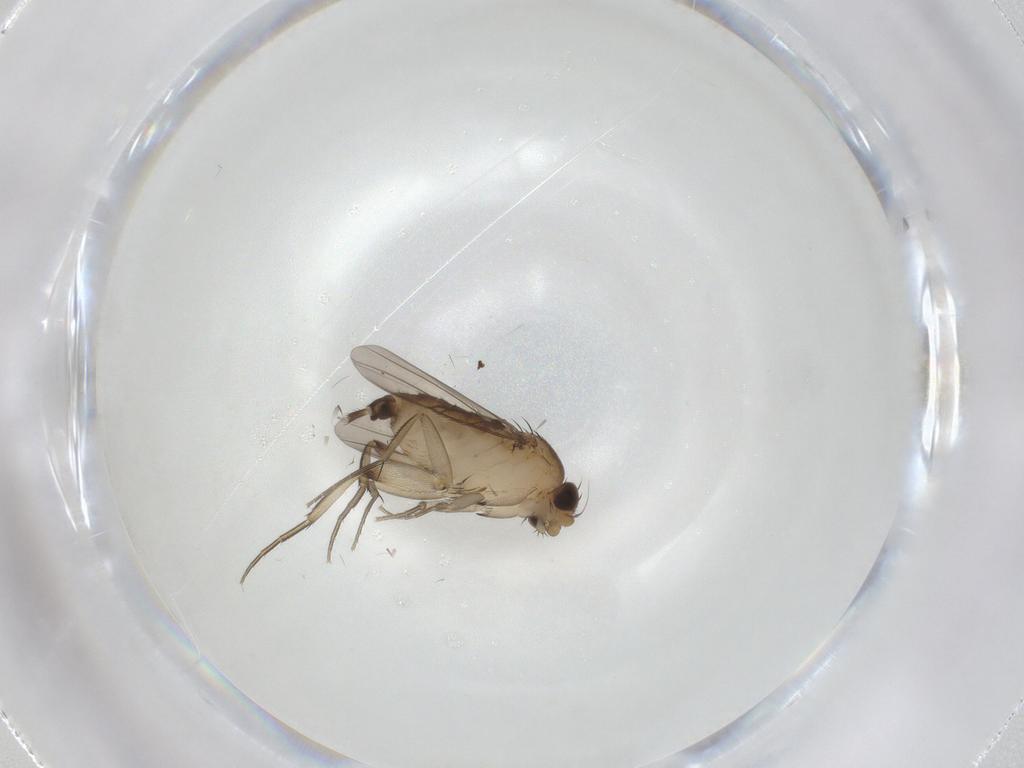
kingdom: Animalia
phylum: Arthropoda
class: Insecta
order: Diptera
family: Phoridae
